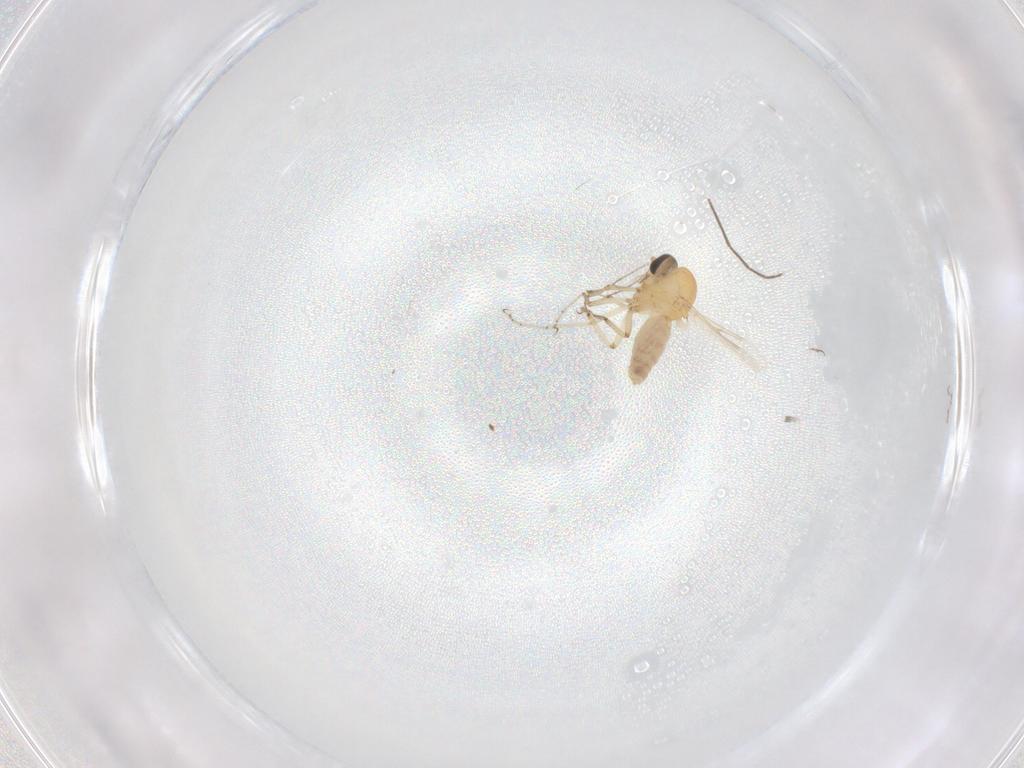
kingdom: Animalia
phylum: Arthropoda
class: Insecta
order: Diptera
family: Ceratopogonidae
